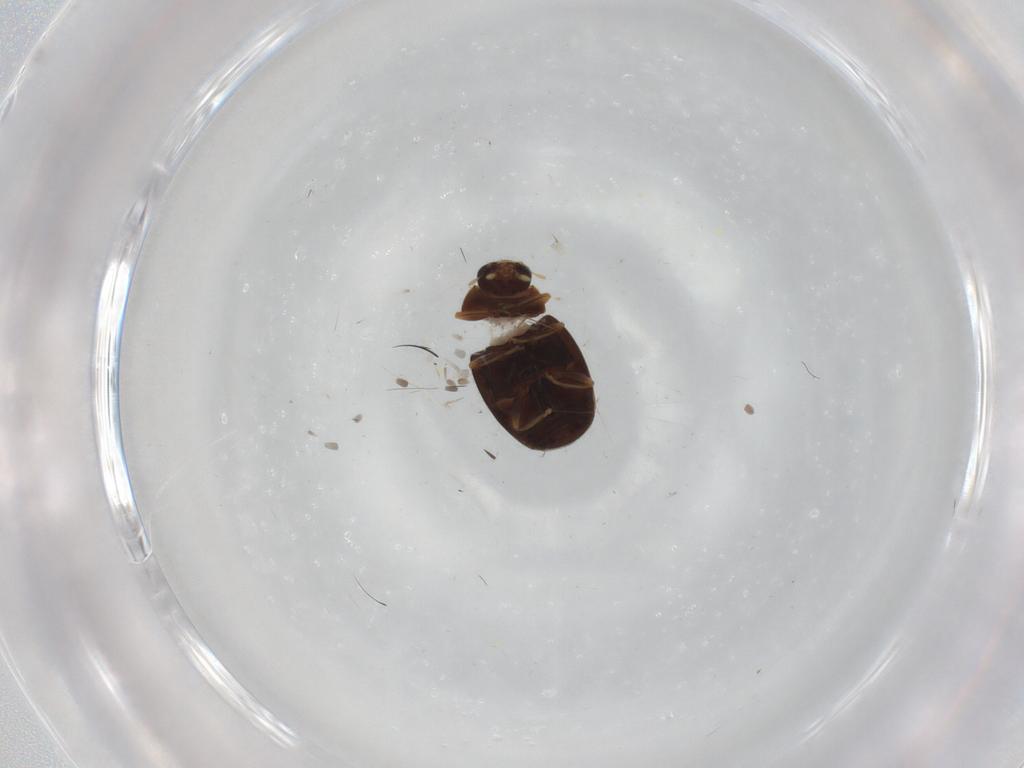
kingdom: Animalia
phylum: Arthropoda
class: Insecta
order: Coleoptera
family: Coccinellidae
